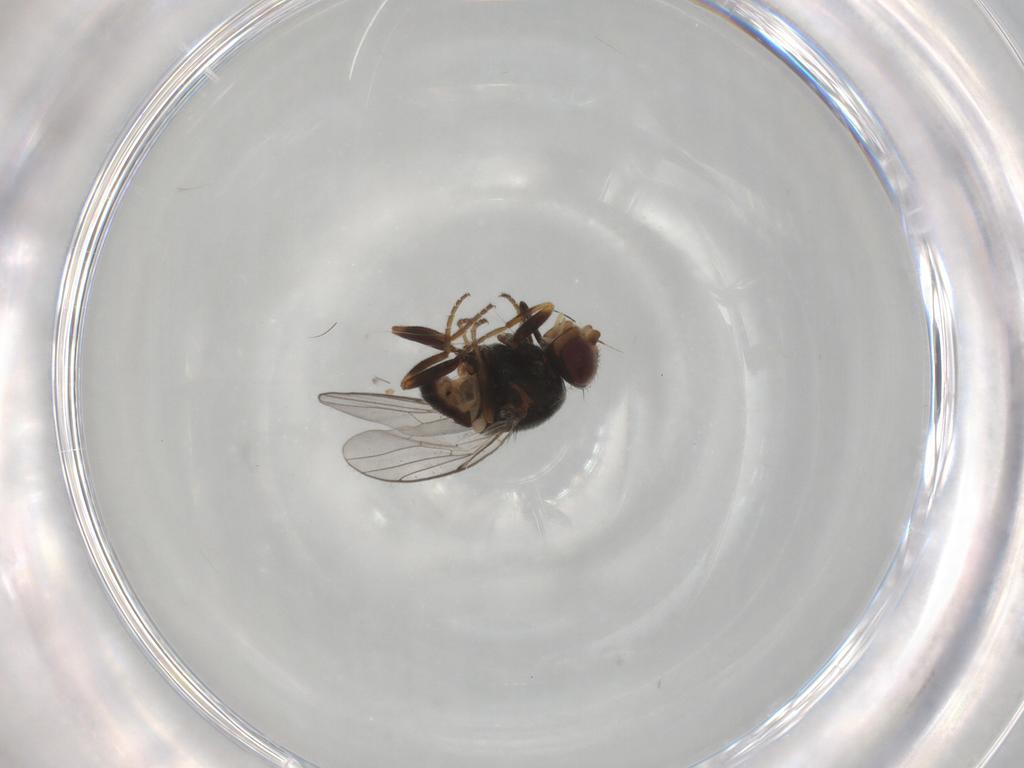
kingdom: Animalia
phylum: Arthropoda
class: Insecta
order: Diptera
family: Chloropidae
